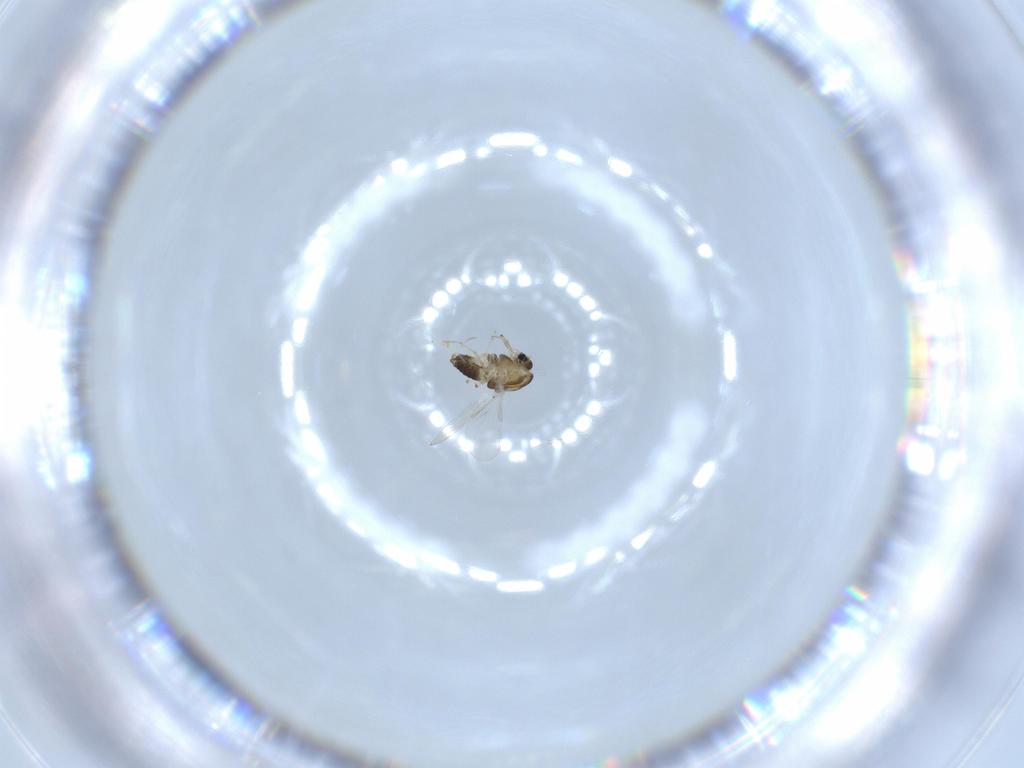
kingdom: Animalia
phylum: Arthropoda
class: Insecta
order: Diptera
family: Chironomidae
